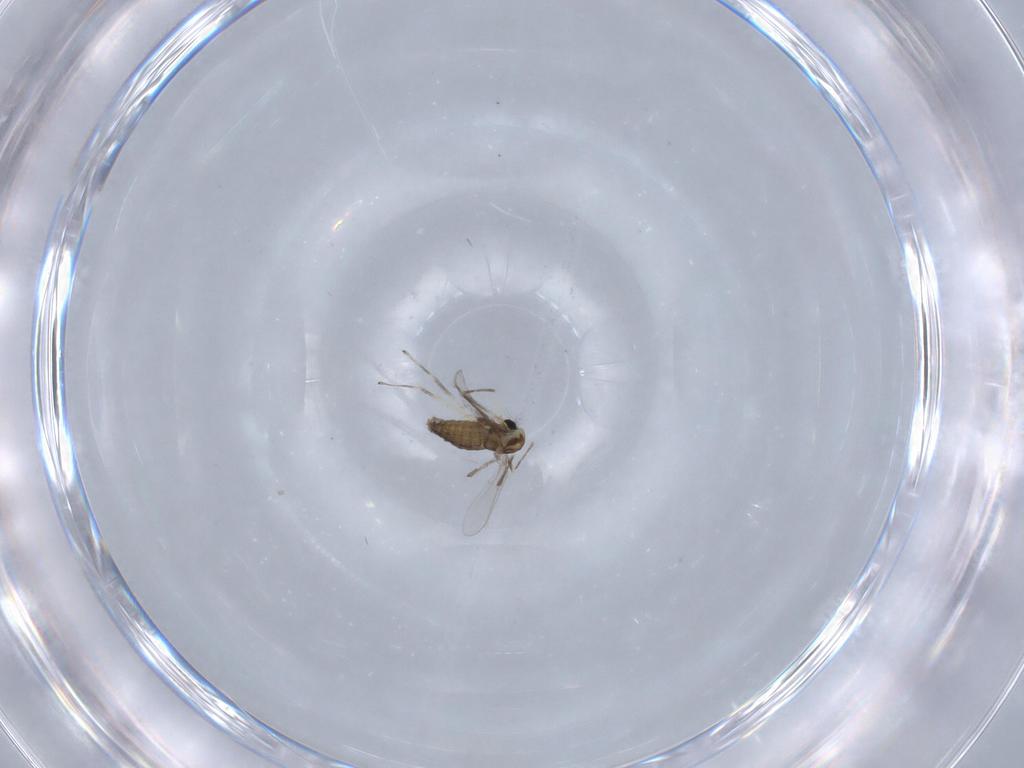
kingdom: Animalia
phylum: Arthropoda
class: Insecta
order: Diptera
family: Chironomidae
